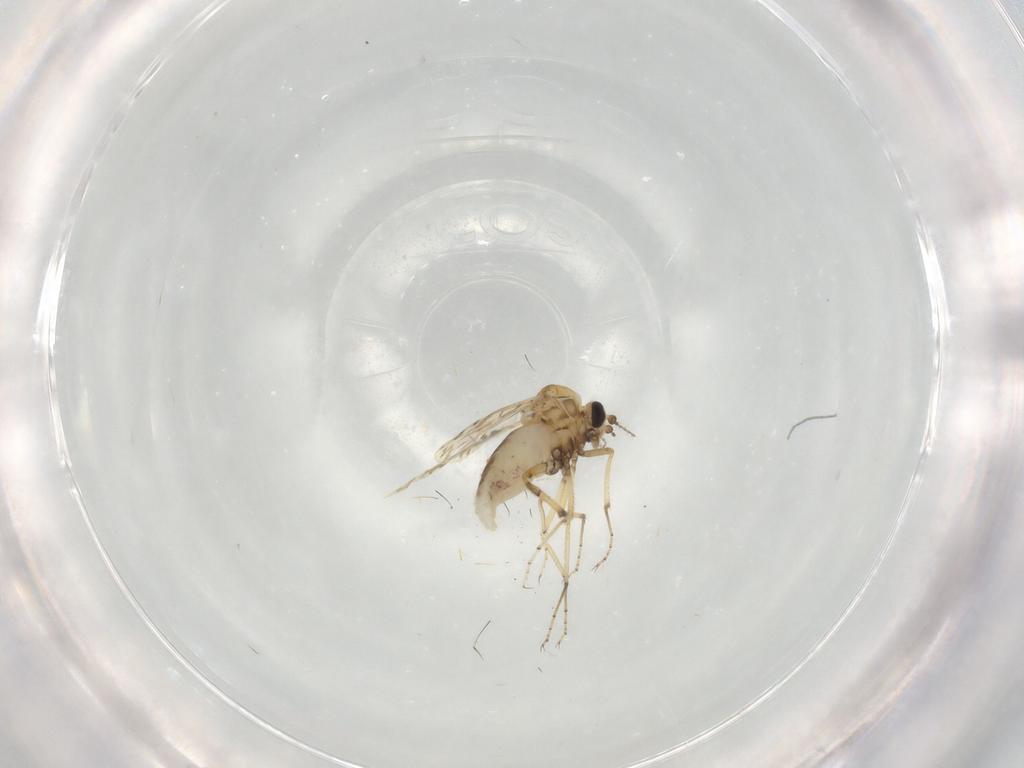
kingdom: Animalia
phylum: Arthropoda
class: Insecta
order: Diptera
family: Ceratopogonidae
